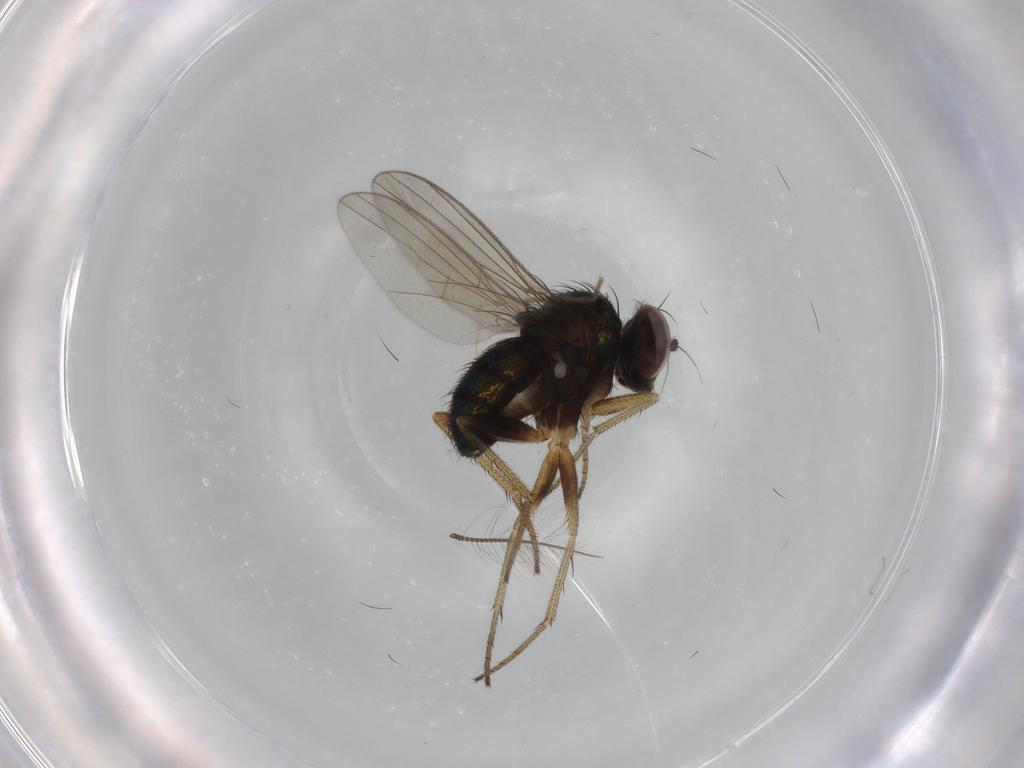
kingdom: Animalia
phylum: Arthropoda
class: Insecta
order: Diptera
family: Dolichopodidae
